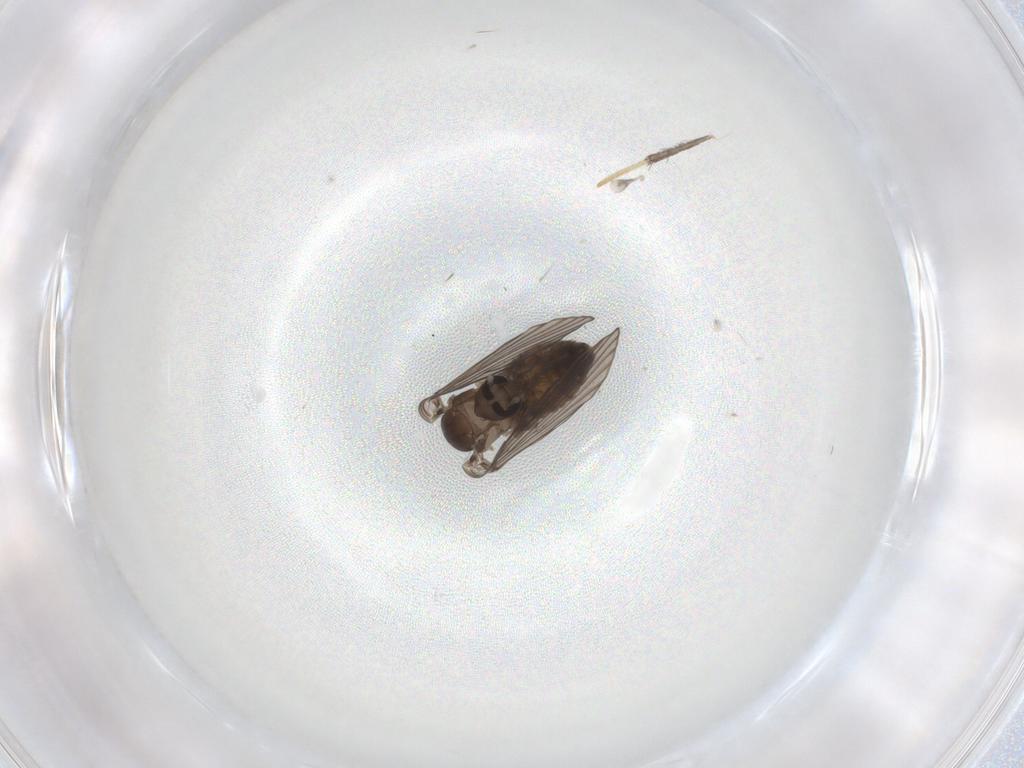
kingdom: Animalia
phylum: Arthropoda
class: Insecta
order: Diptera
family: Psychodidae
